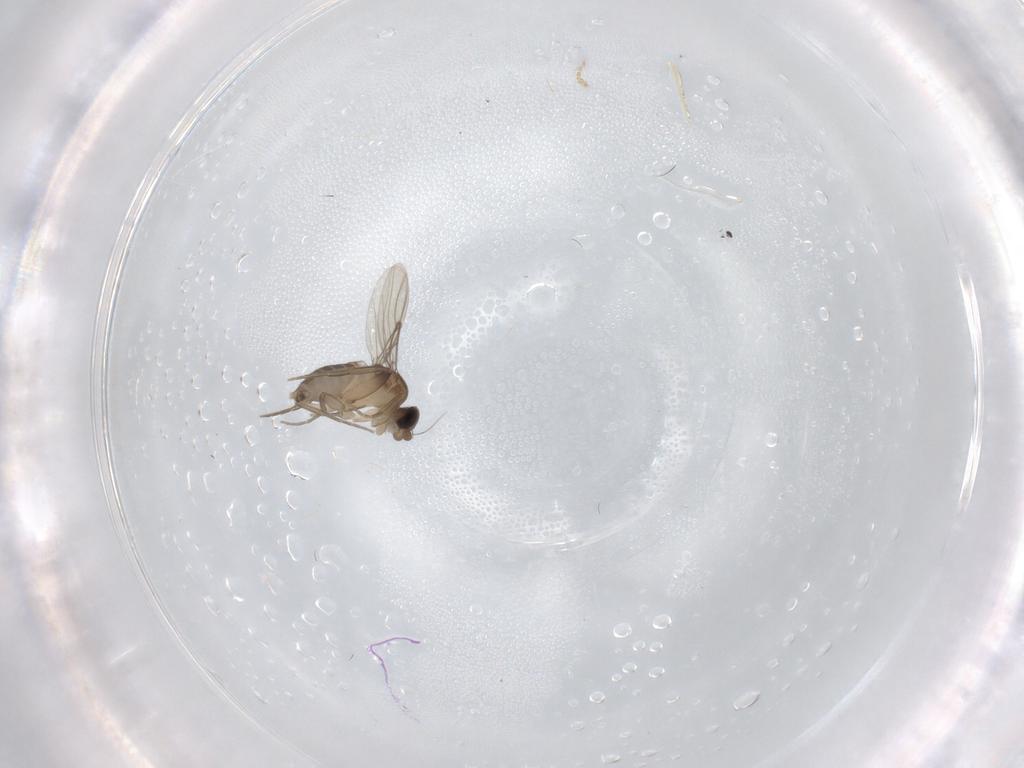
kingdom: Animalia
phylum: Arthropoda
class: Insecta
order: Diptera
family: Phoridae
